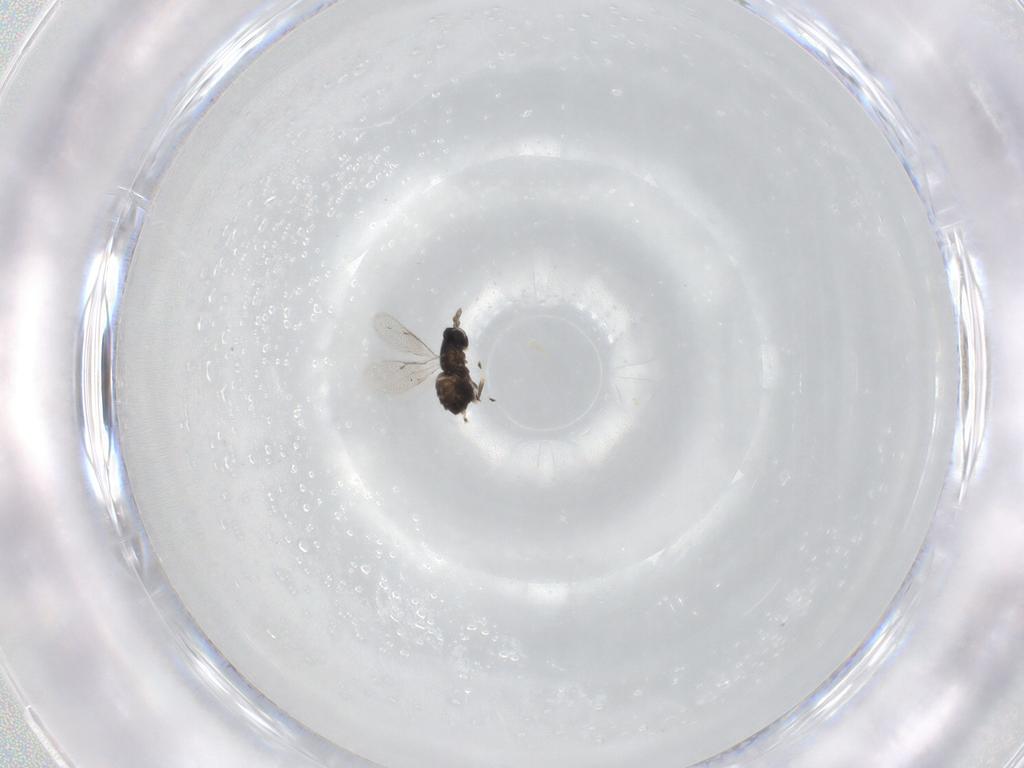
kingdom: Animalia
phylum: Arthropoda
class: Insecta
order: Hymenoptera
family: Eulophidae
